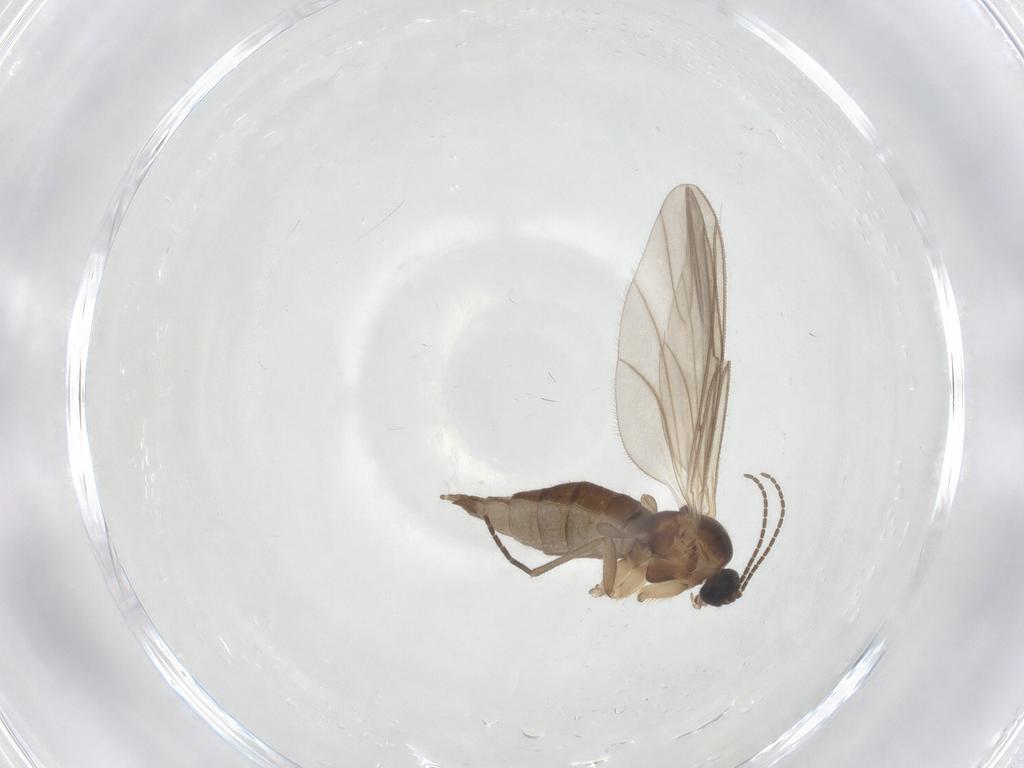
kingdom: Animalia
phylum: Arthropoda
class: Insecta
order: Diptera
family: Sciaridae
